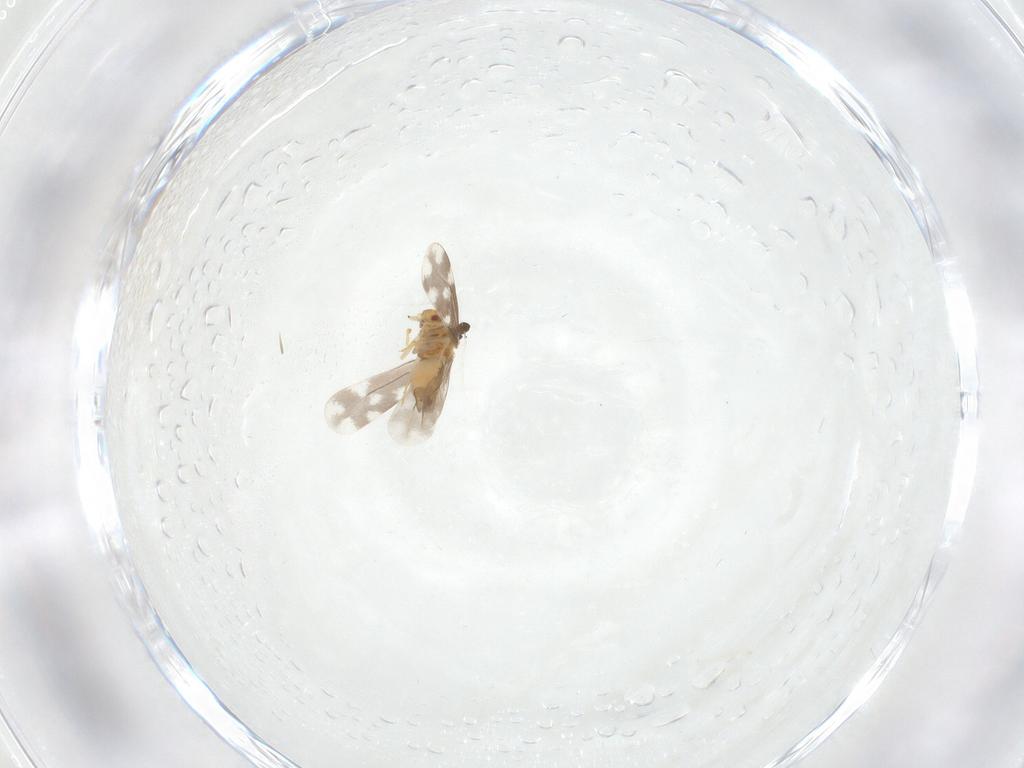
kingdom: Animalia
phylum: Arthropoda
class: Insecta
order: Hemiptera
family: Aleyrodidae
